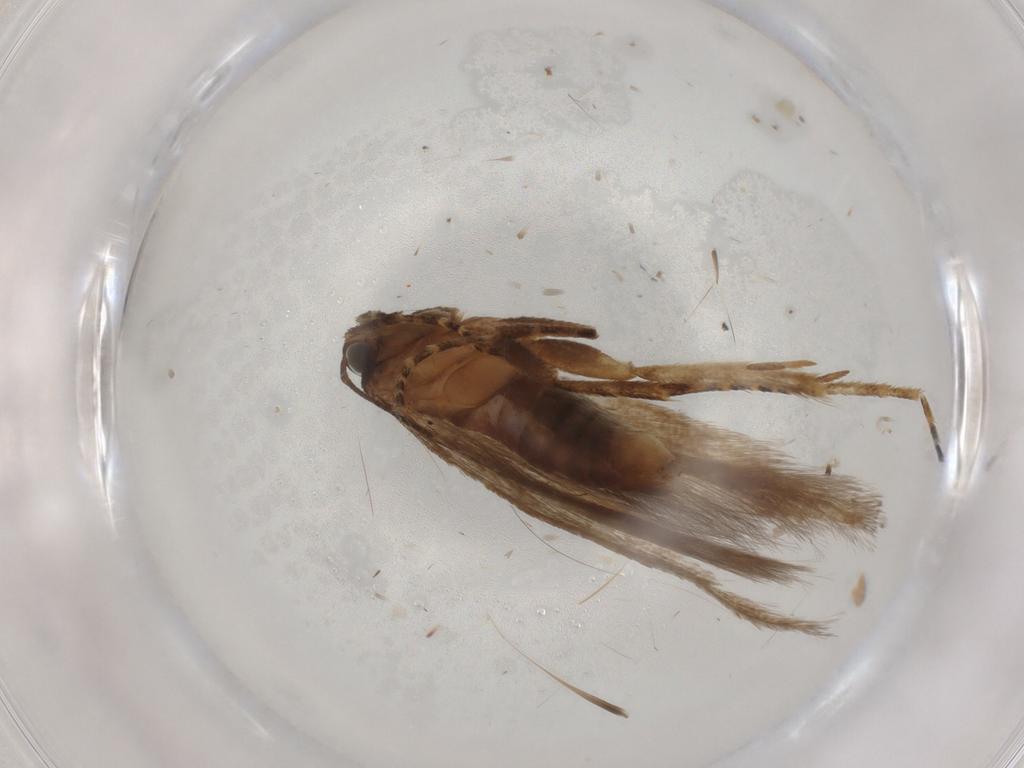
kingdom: Animalia
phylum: Arthropoda
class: Insecta
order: Lepidoptera
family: Gelechiidae
